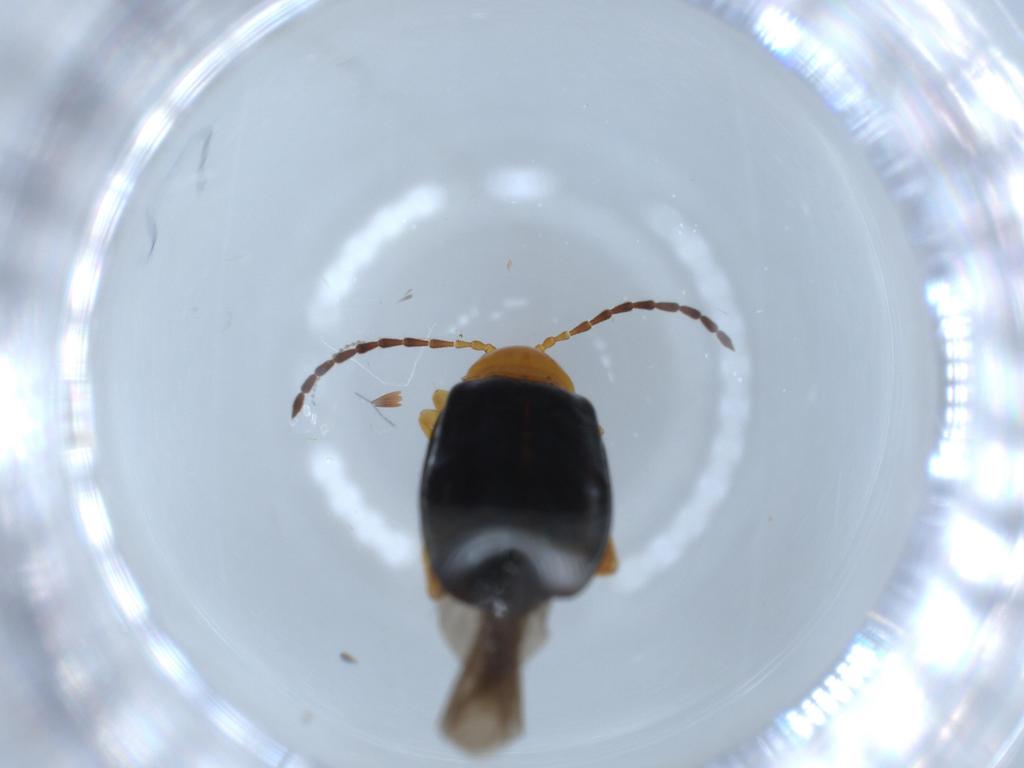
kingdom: Animalia
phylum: Arthropoda
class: Insecta
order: Coleoptera
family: Chrysomelidae
